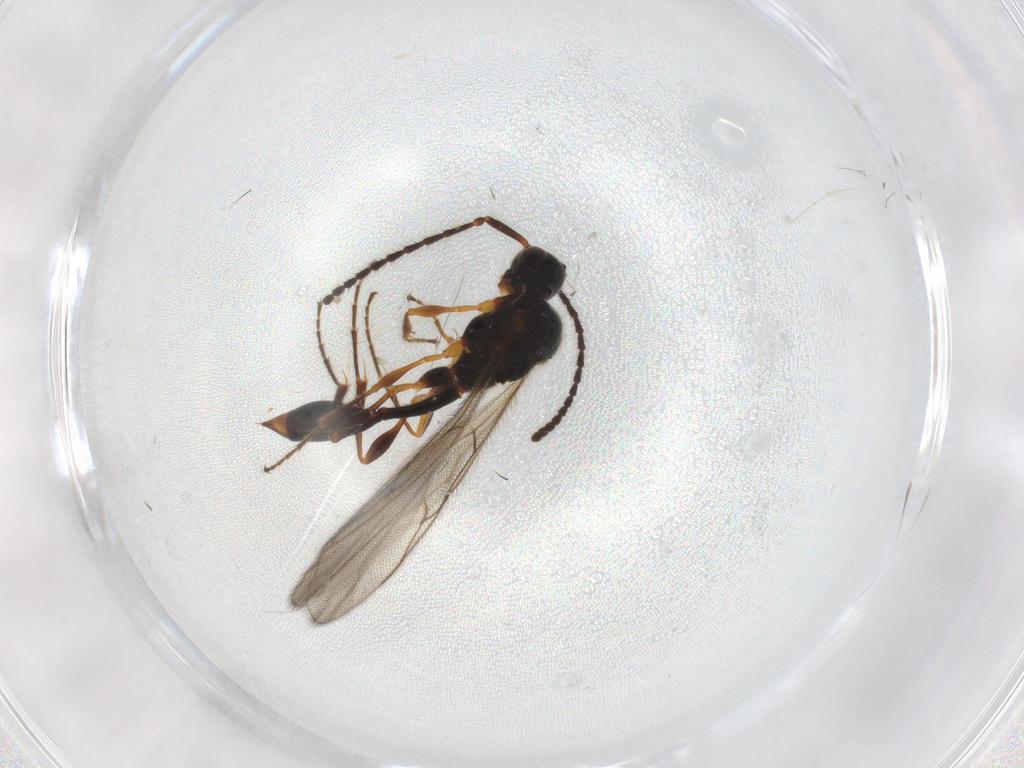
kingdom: Animalia
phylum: Arthropoda
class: Insecta
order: Hymenoptera
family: Diapriidae
